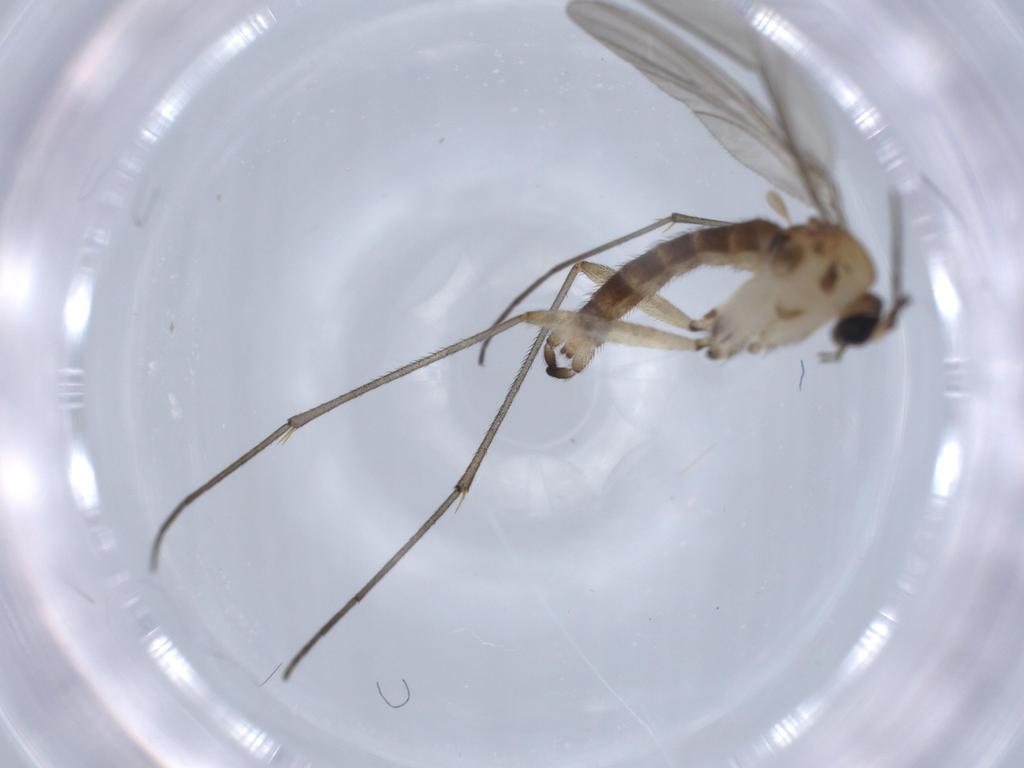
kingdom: Animalia
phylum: Arthropoda
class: Insecta
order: Diptera
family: Sciaridae
